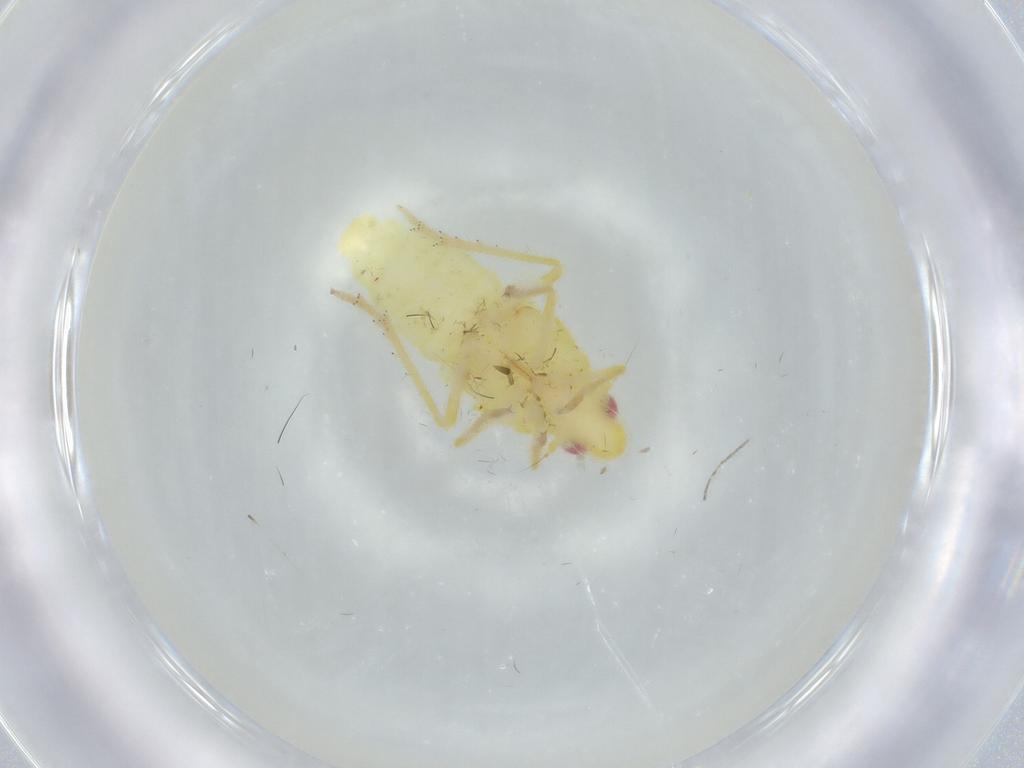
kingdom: Animalia
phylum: Arthropoda
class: Insecta
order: Hemiptera
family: Tropiduchidae
